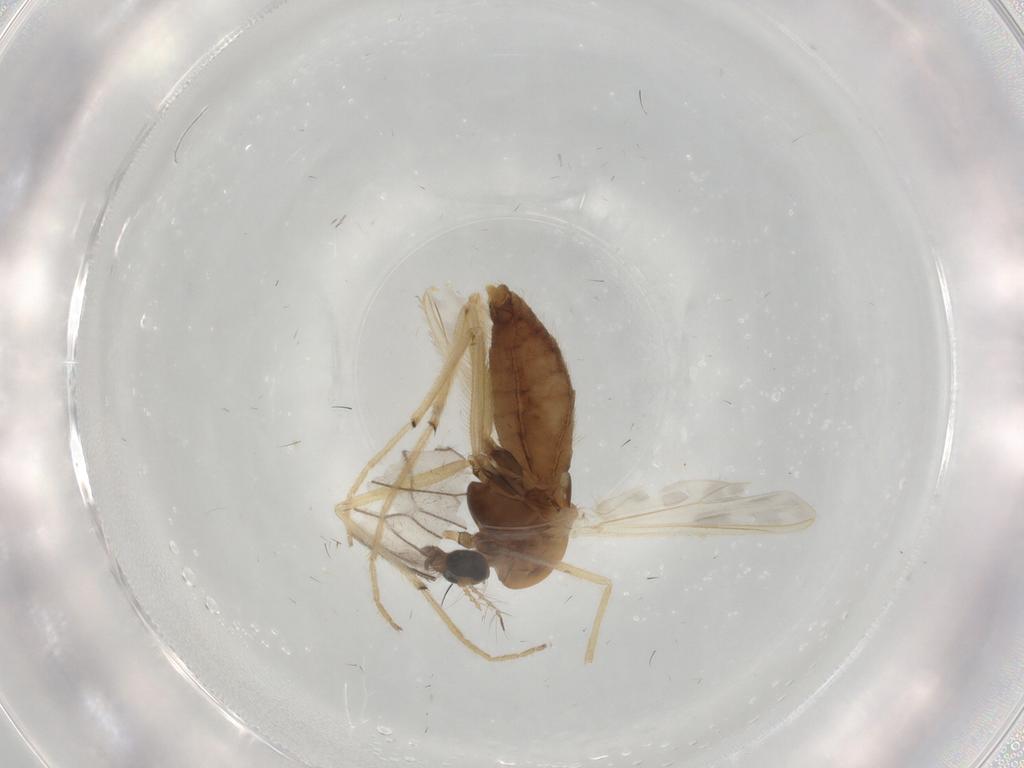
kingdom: Animalia
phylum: Arthropoda
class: Insecta
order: Diptera
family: Chironomidae
